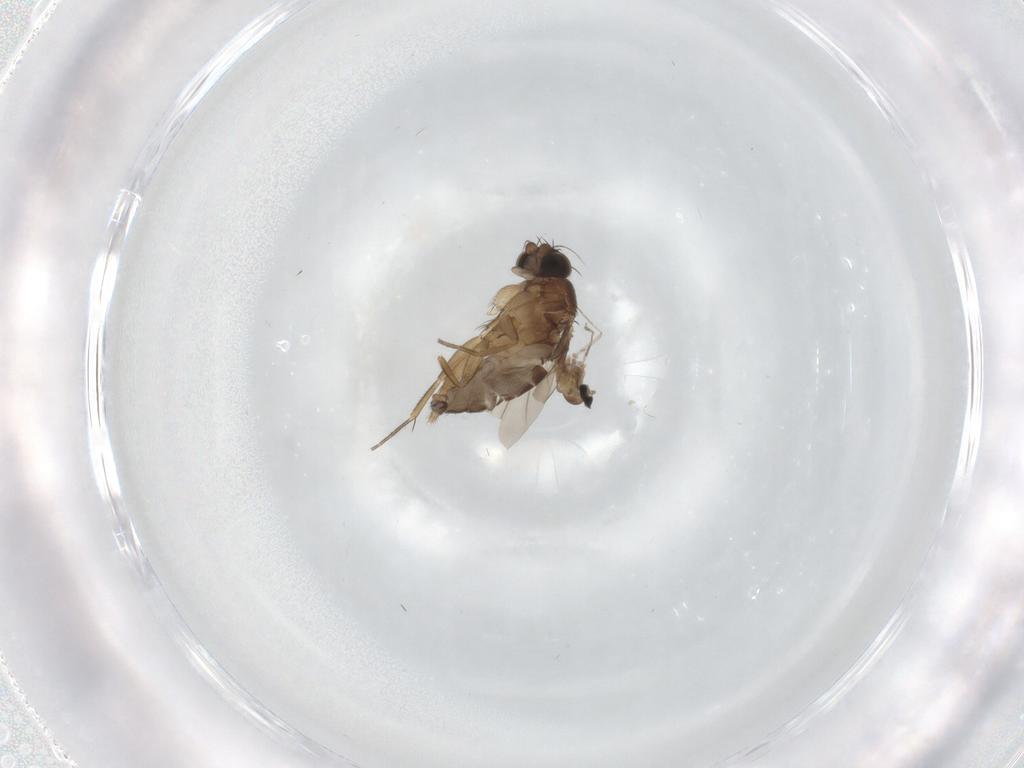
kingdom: Animalia
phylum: Arthropoda
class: Insecta
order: Diptera
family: Phoridae
